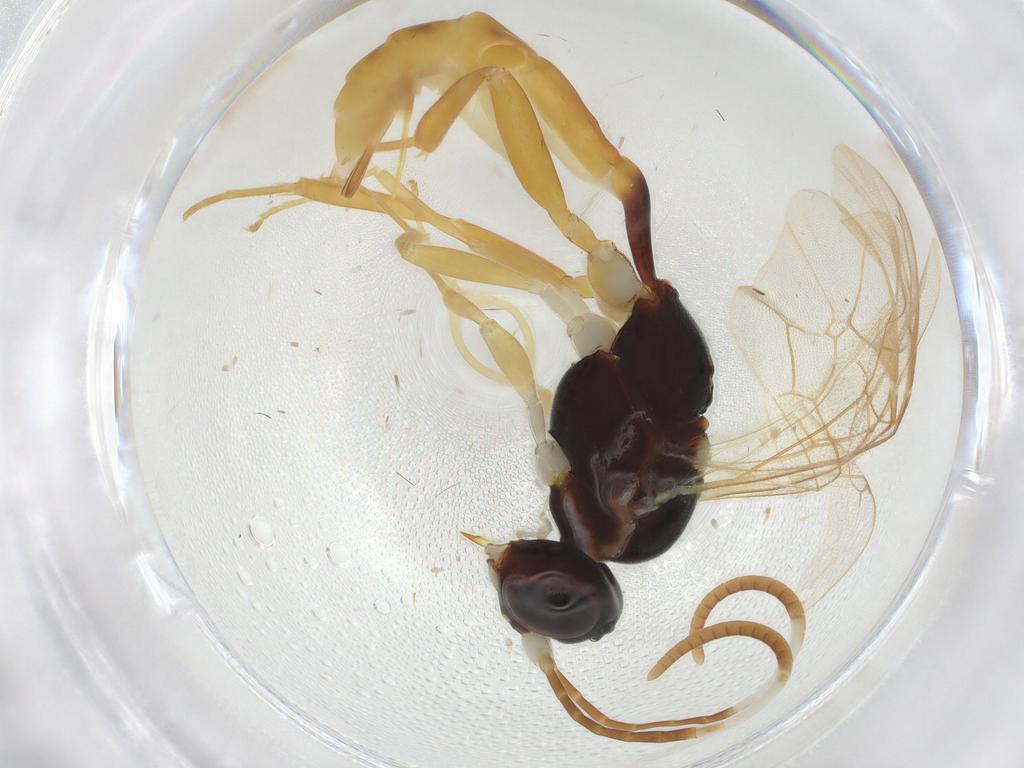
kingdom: Animalia
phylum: Arthropoda
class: Insecta
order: Hymenoptera
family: Scelionidae
